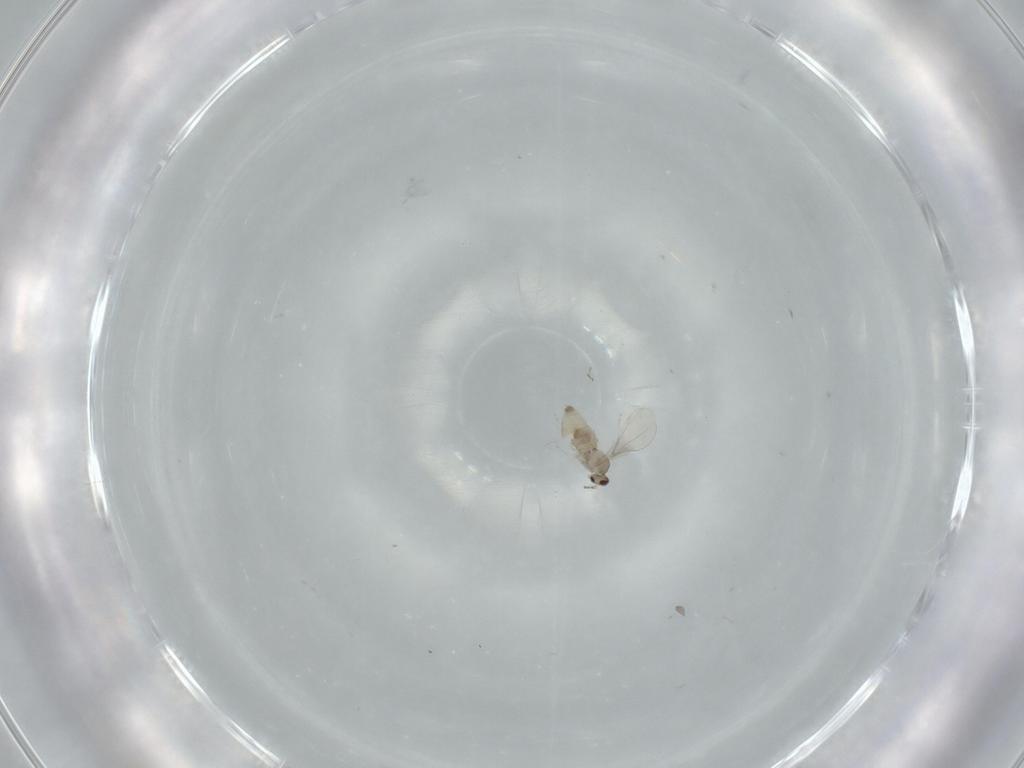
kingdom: Animalia
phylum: Arthropoda
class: Insecta
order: Diptera
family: Cecidomyiidae
